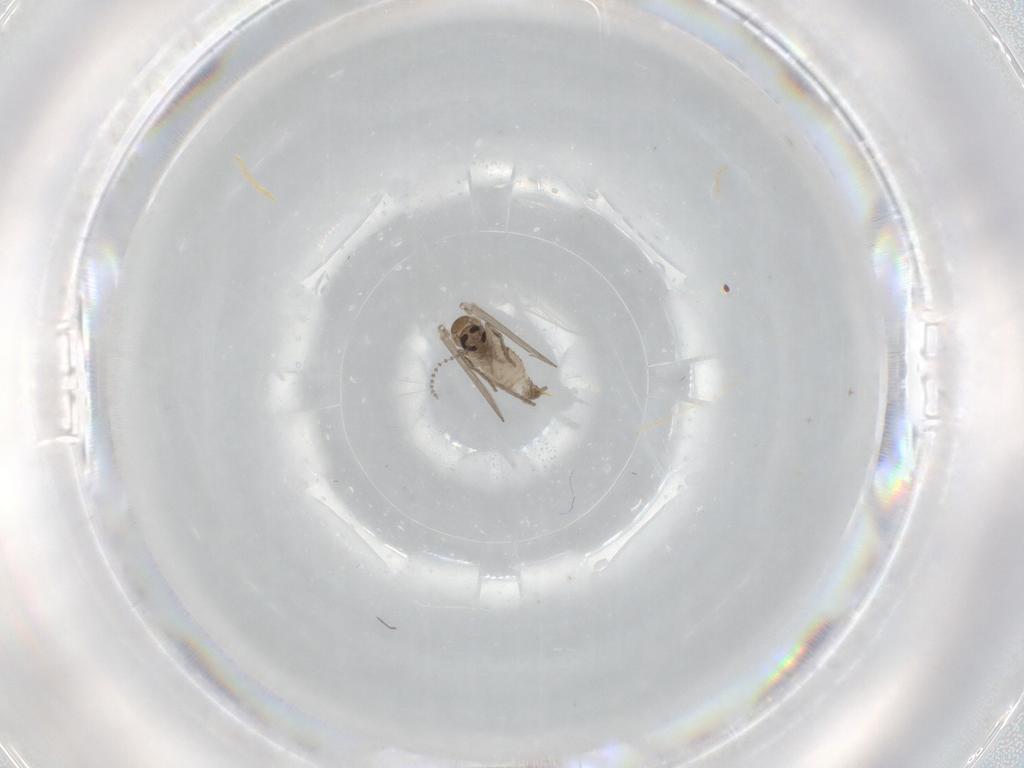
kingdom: Animalia
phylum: Arthropoda
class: Insecta
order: Diptera
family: Psychodidae
